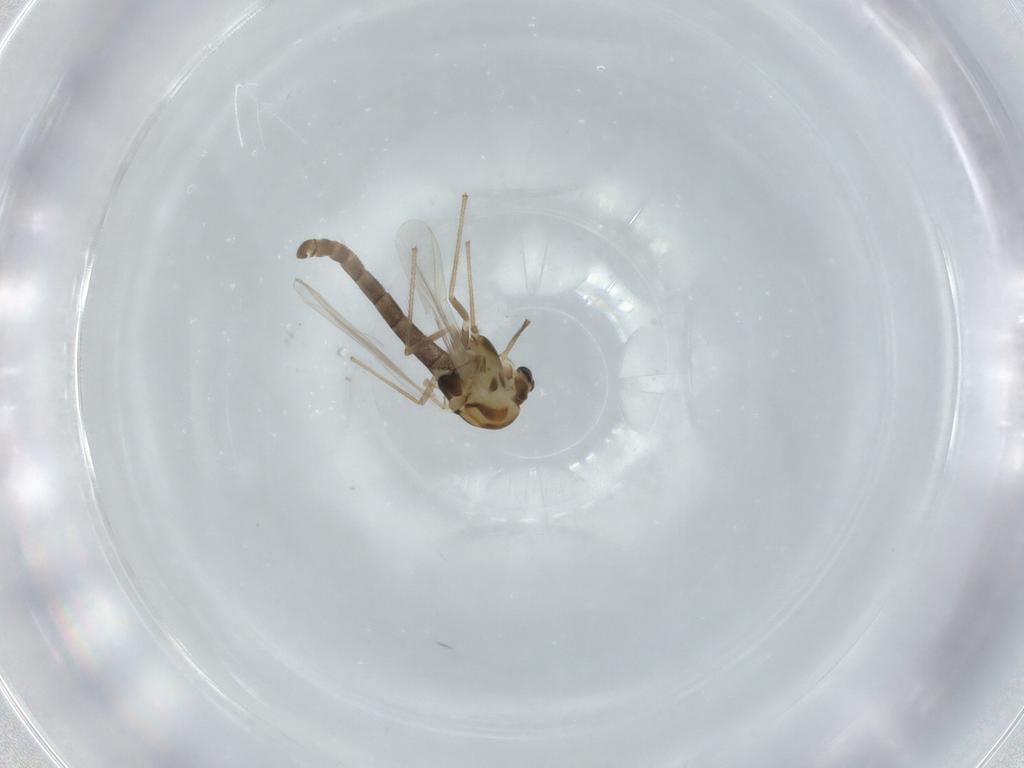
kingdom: Animalia
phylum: Arthropoda
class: Insecta
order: Diptera
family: Chironomidae
